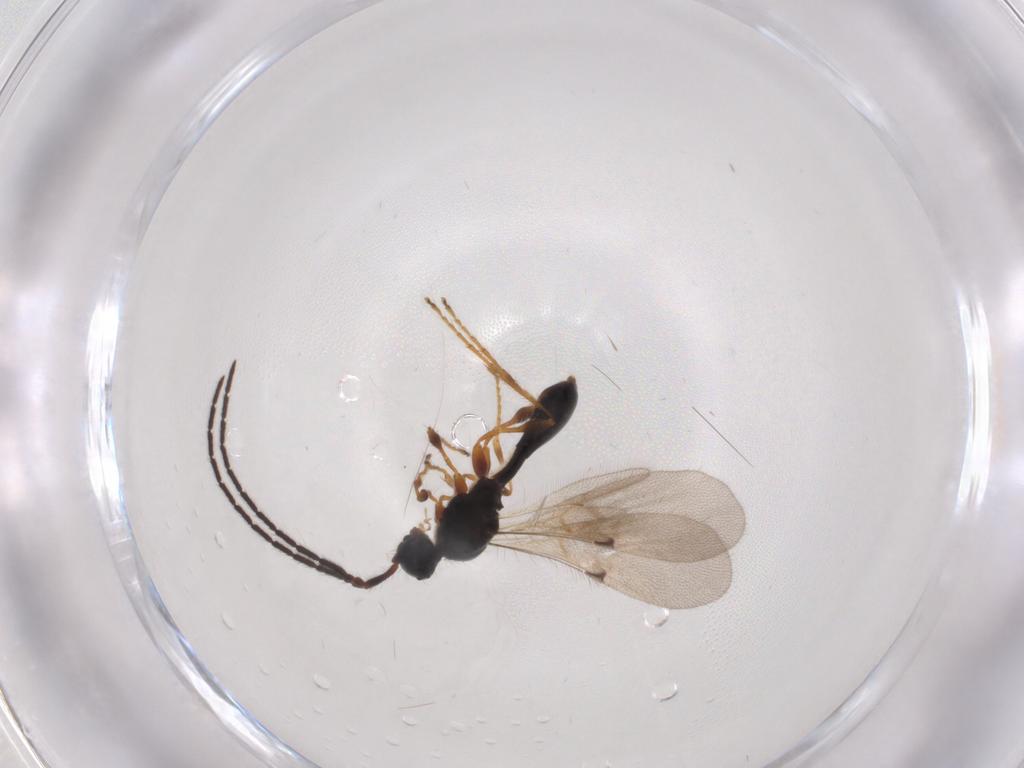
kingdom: Animalia
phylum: Arthropoda
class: Insecta
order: Hymenoptera
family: Diapriidae
